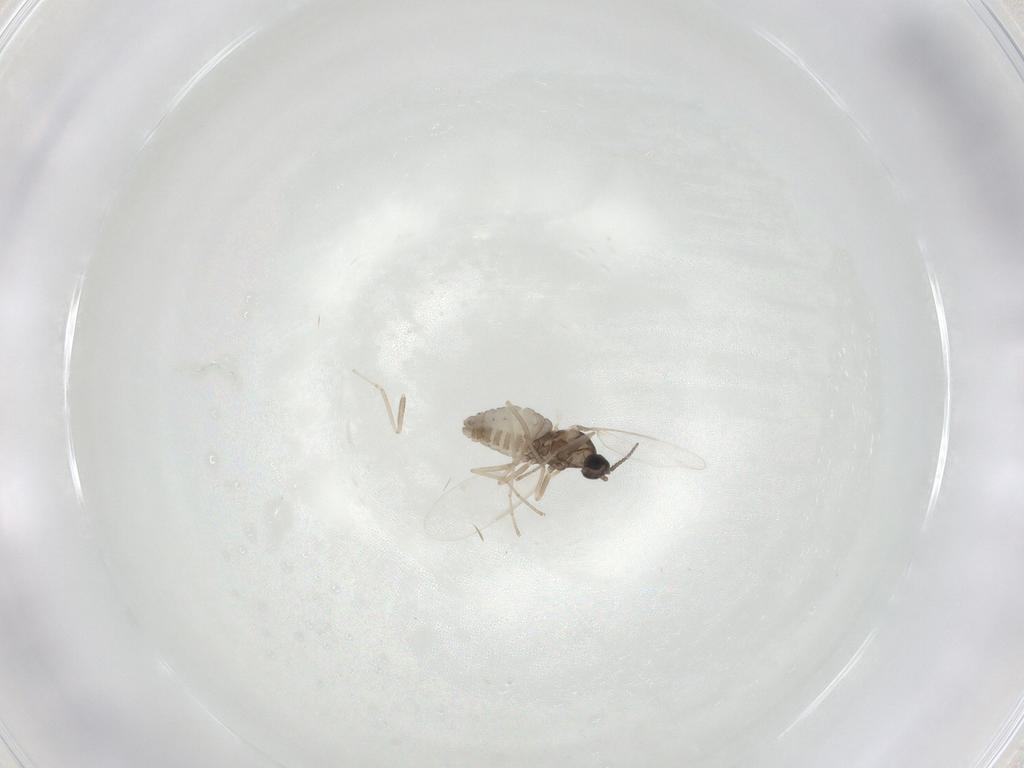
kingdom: Animalia
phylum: Arthropoda
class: Insecta
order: Diptera
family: Cecidomyiidae
